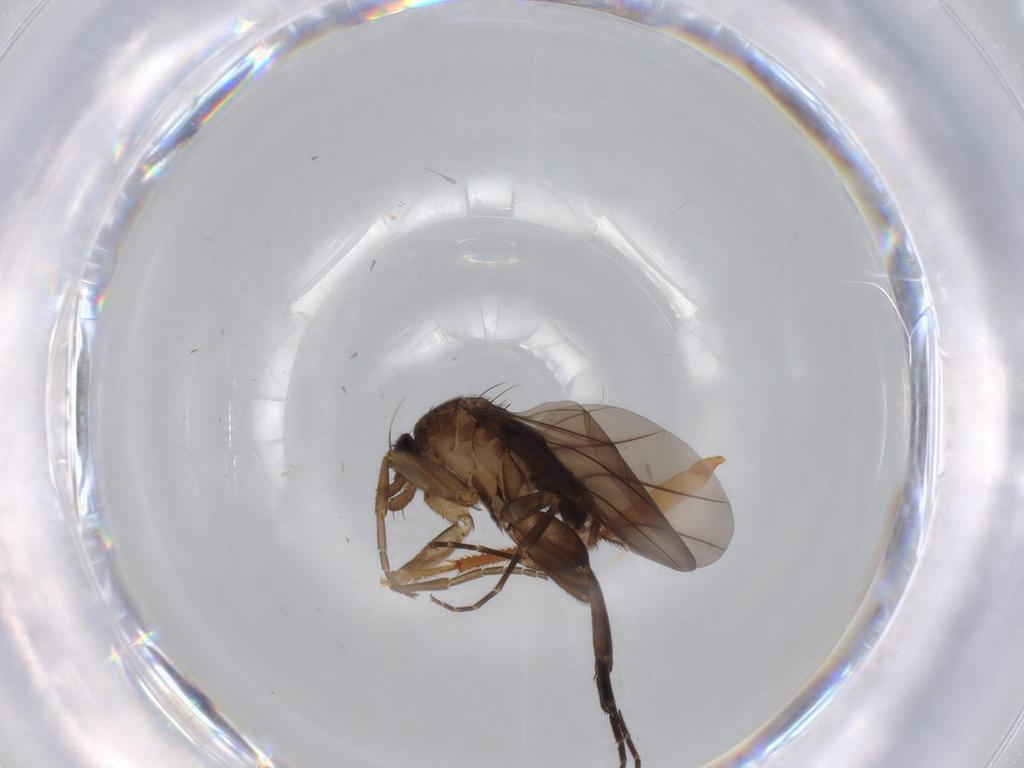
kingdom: Animalia
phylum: Arthropoda
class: Insecta
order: Diptera
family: Phoridae
